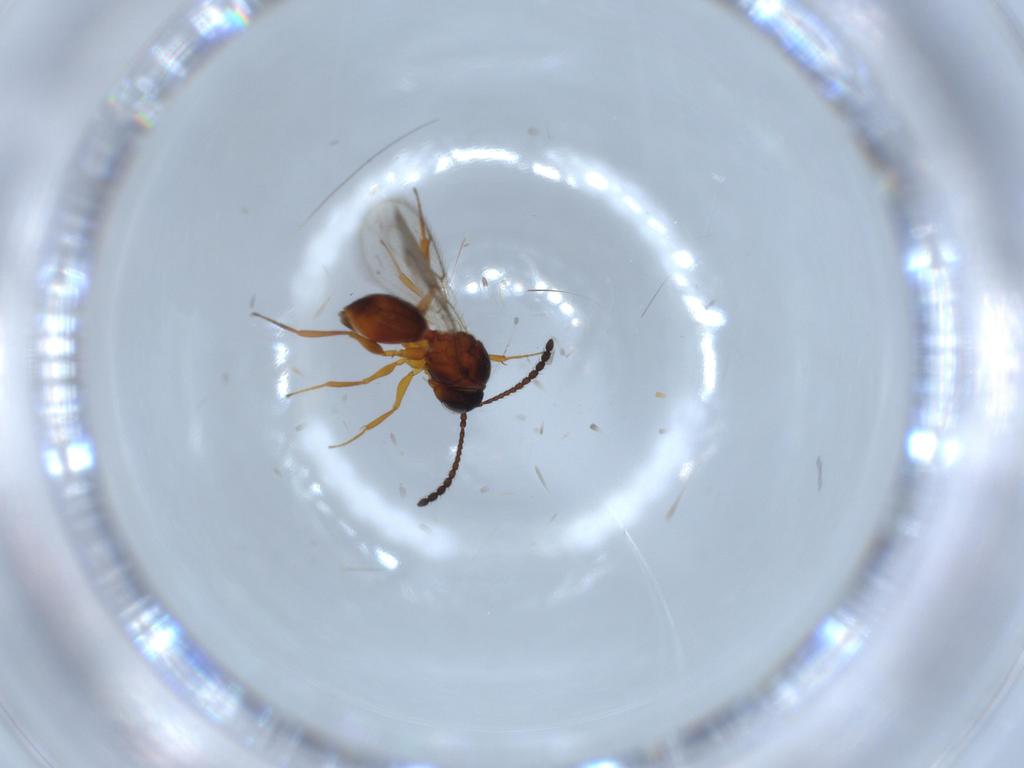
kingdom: Animalia
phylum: Arthropoda
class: Insecta
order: Hymenoptera
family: Figitidae
